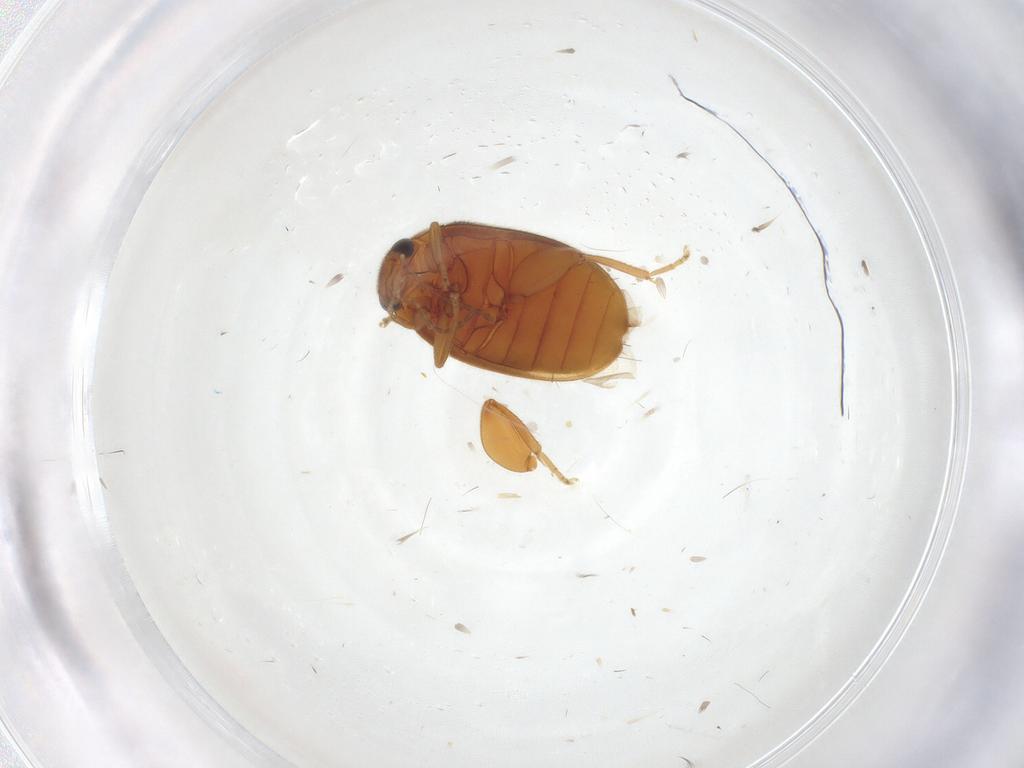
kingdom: Animalia
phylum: Arthropoda
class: Insecta
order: Coleoptera
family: Scirtidae
